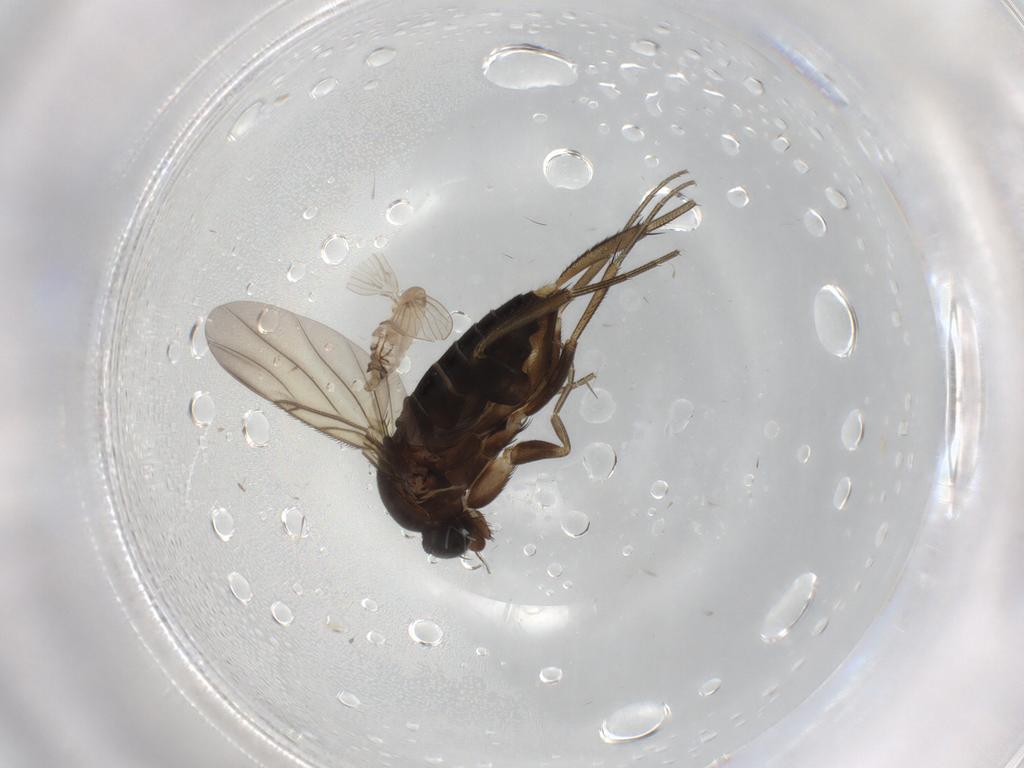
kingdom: Animalia
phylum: Arthropoda
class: Insecta
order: Diptera
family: Phoridae
